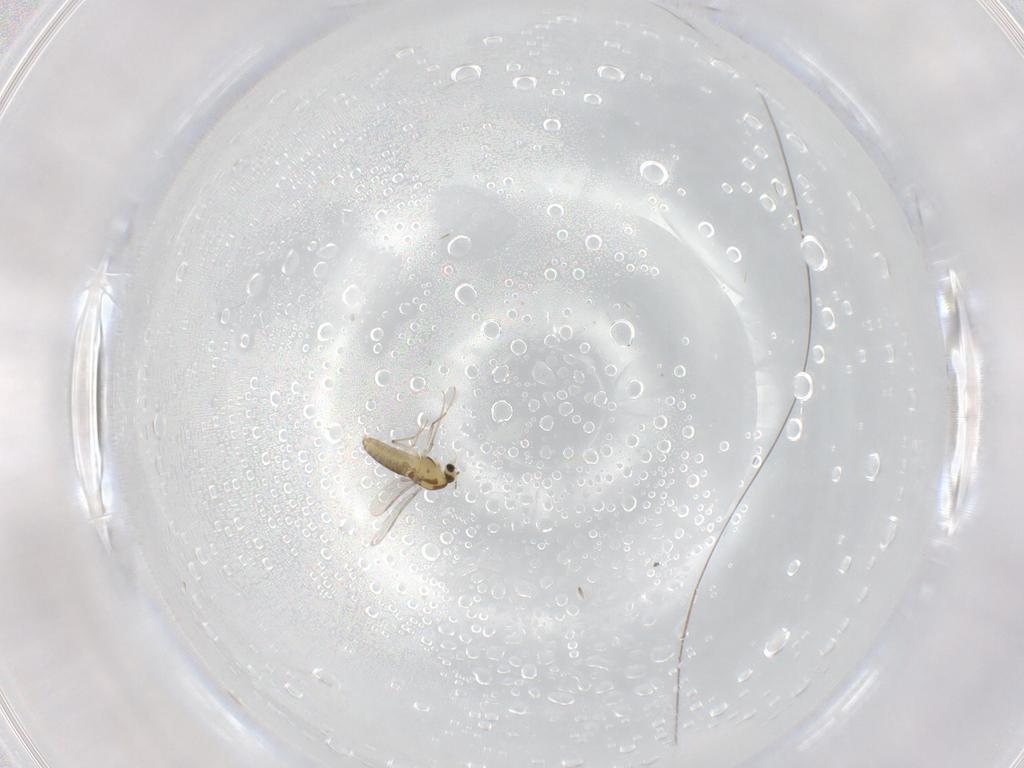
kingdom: Animalia
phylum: Arthropoda
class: Insecta
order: Diptera
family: Chironomidae
